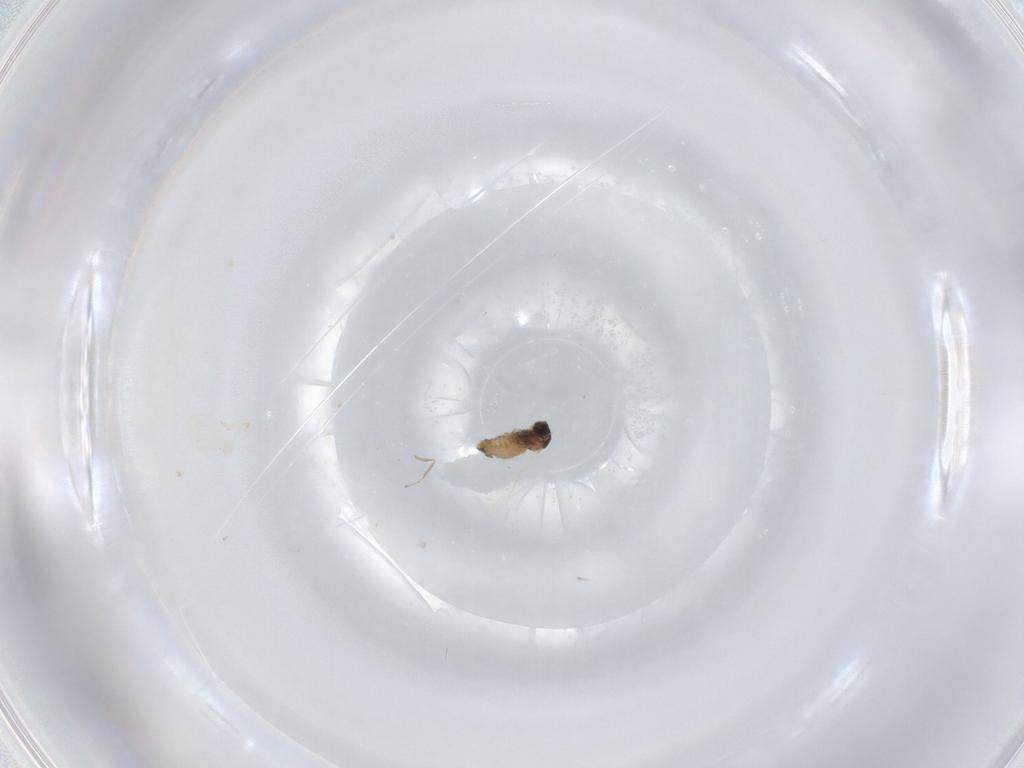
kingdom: Animalia
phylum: Arthropoda
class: Insecta
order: Diptera
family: Cecidomyiidae
